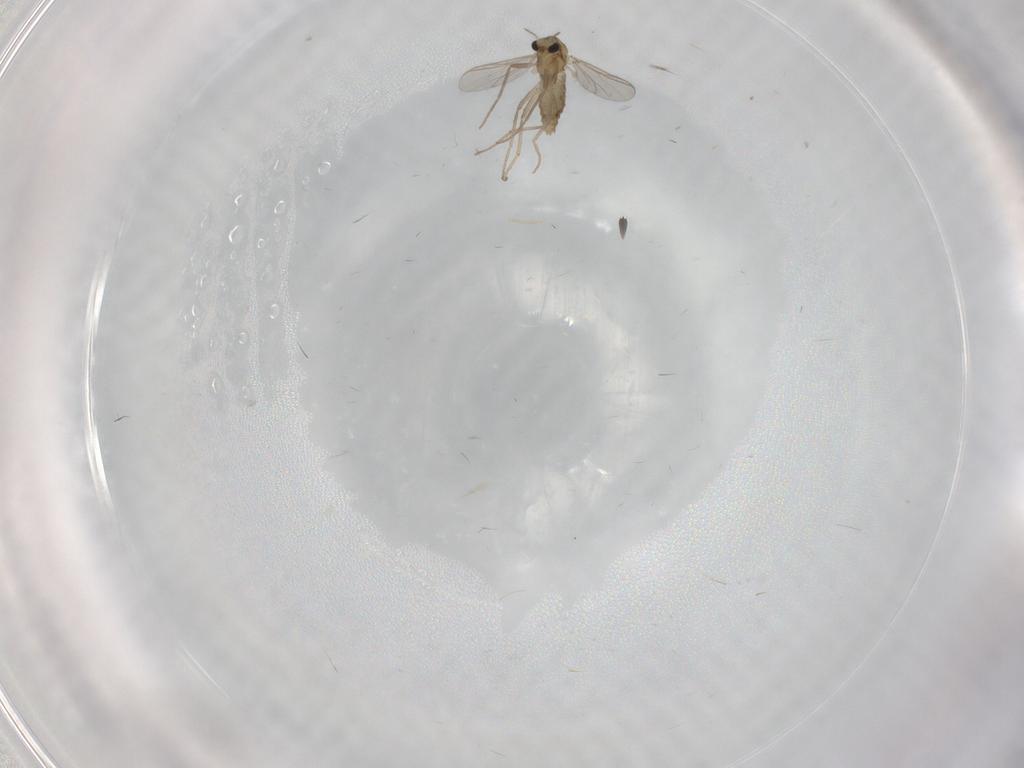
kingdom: Animalia
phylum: Arthropoda
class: Insecta
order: Diptera
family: Chironomidae
